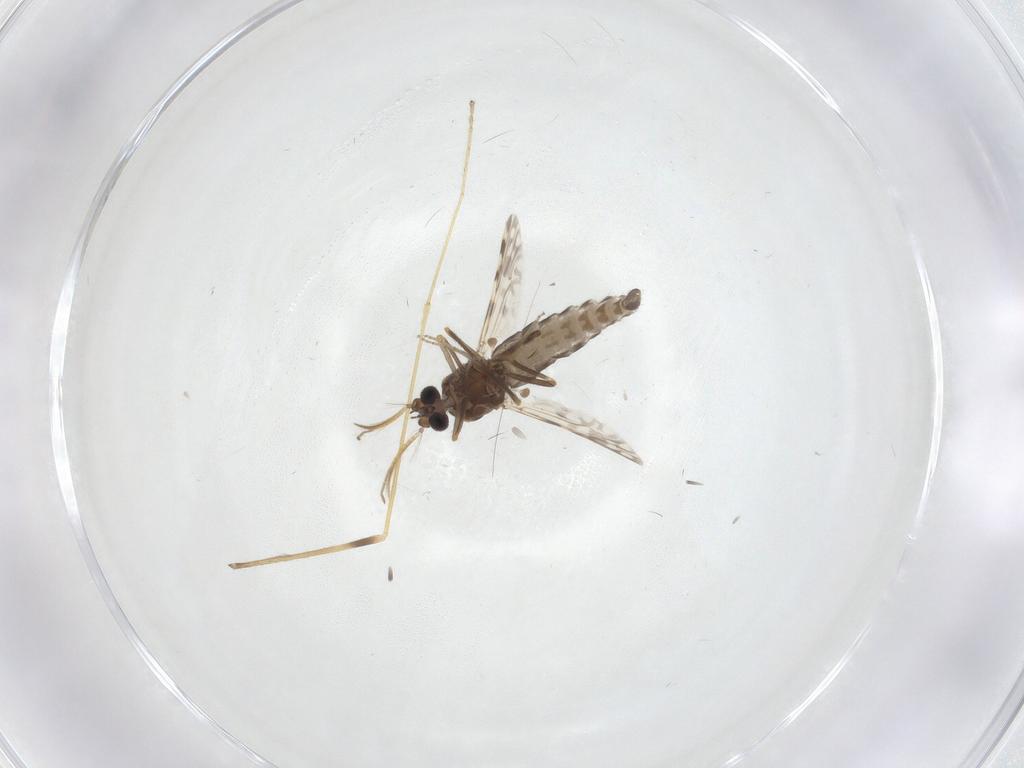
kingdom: Animalia
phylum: Arthropoda
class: Insecta
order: Diptera
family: Ceratopogonidae
